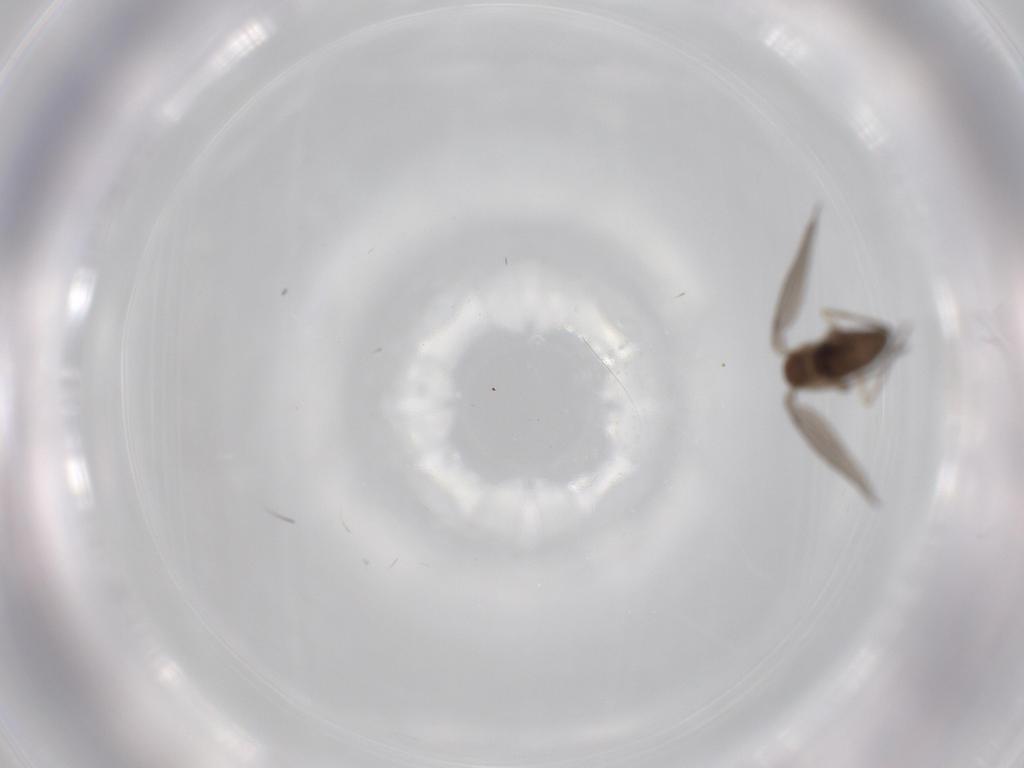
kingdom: Animalia
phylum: Arthropoda
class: Insecta
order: Diptera
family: Psychodidae
